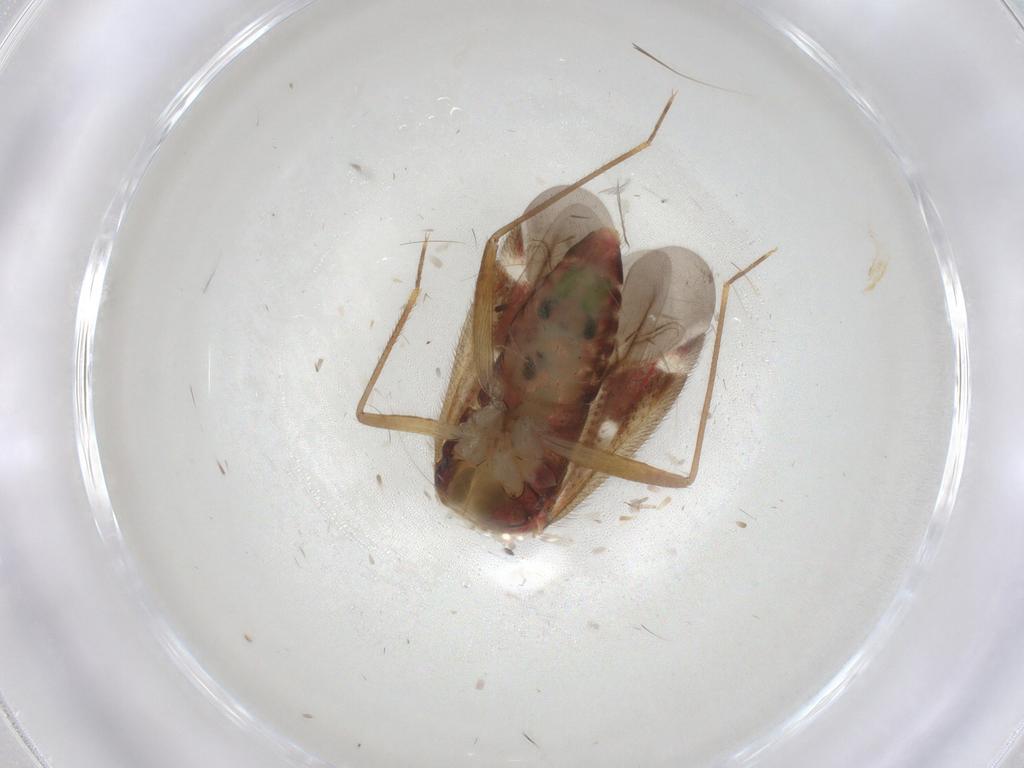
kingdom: Animalia
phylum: Arthropoda
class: Insecta
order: Hemiptera
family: Miridae
